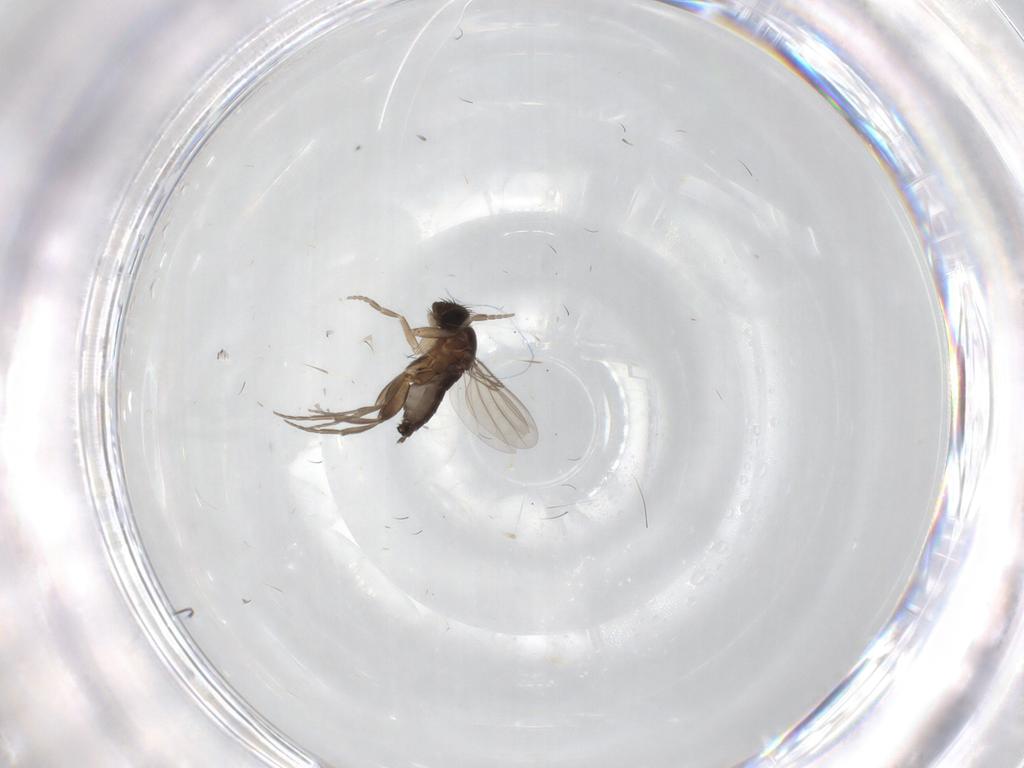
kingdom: Animalia
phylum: Arthropoda
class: Insecta
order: Diptera
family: Phoridae
